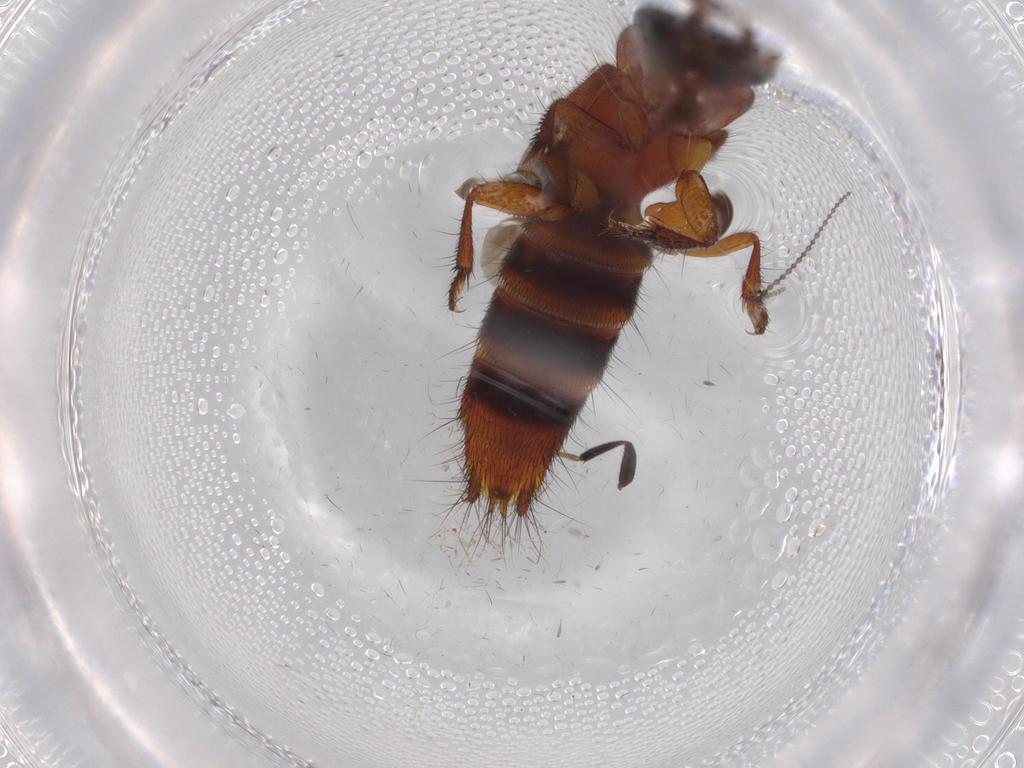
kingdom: Animalia
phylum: Arthropoda
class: Insecta
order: Coleoptera
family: Staphylinidae
